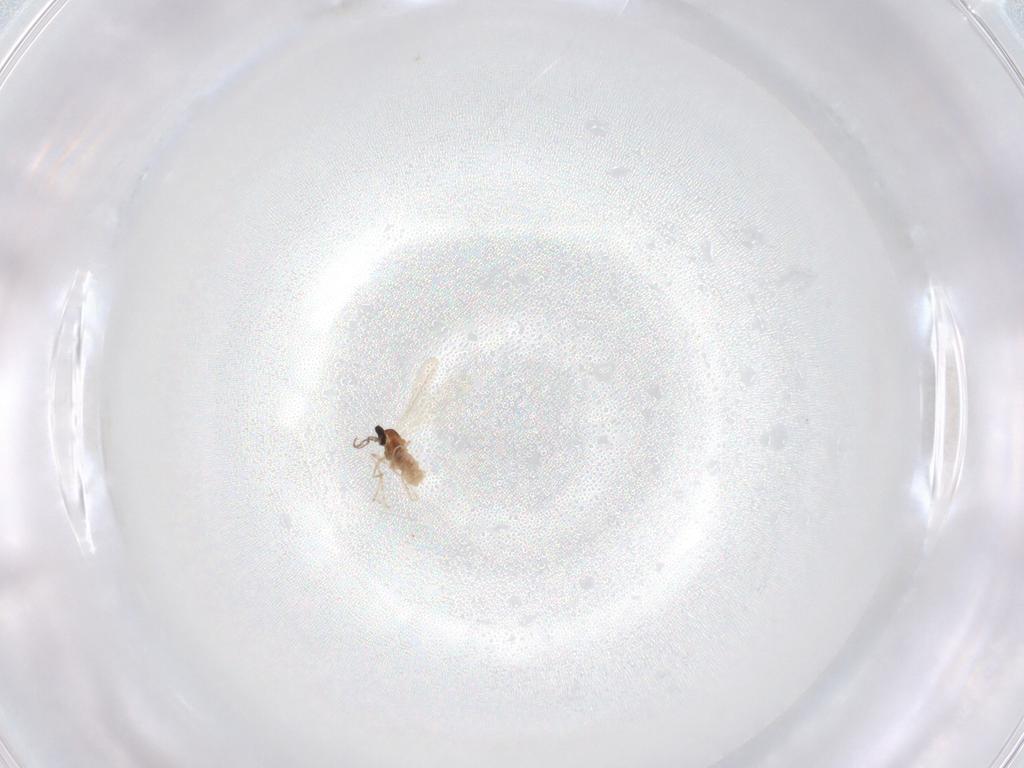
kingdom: Animalia
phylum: Arthropoda
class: Insecta
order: Diptera
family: Cecidomyiidae
